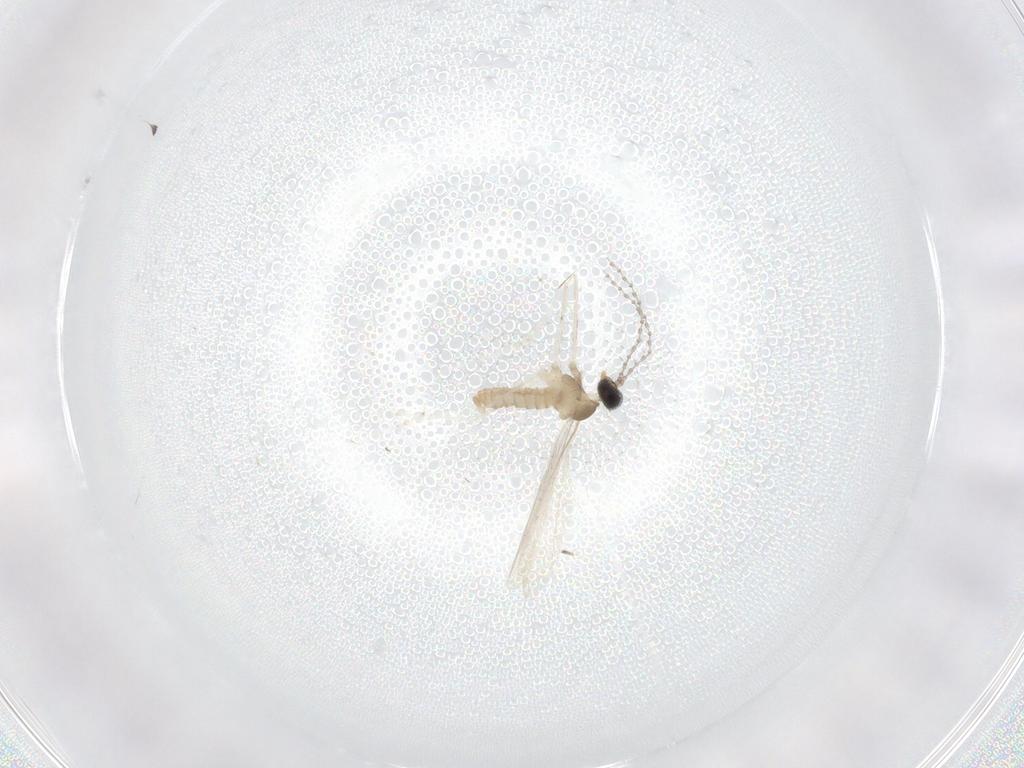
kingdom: Animalia
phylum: Arthropoda
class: Insecta
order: Diptera
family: Cecidomyiidae
